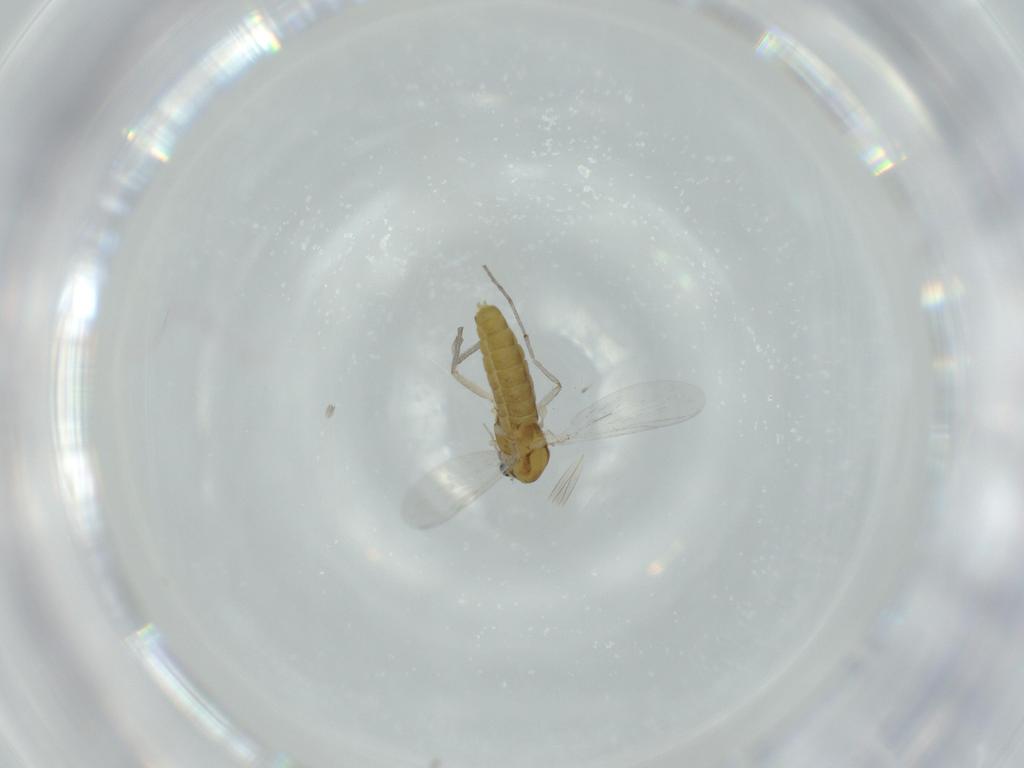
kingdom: Animalia
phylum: Arthropoda
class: Insecta
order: Diptera
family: Chironomidae
